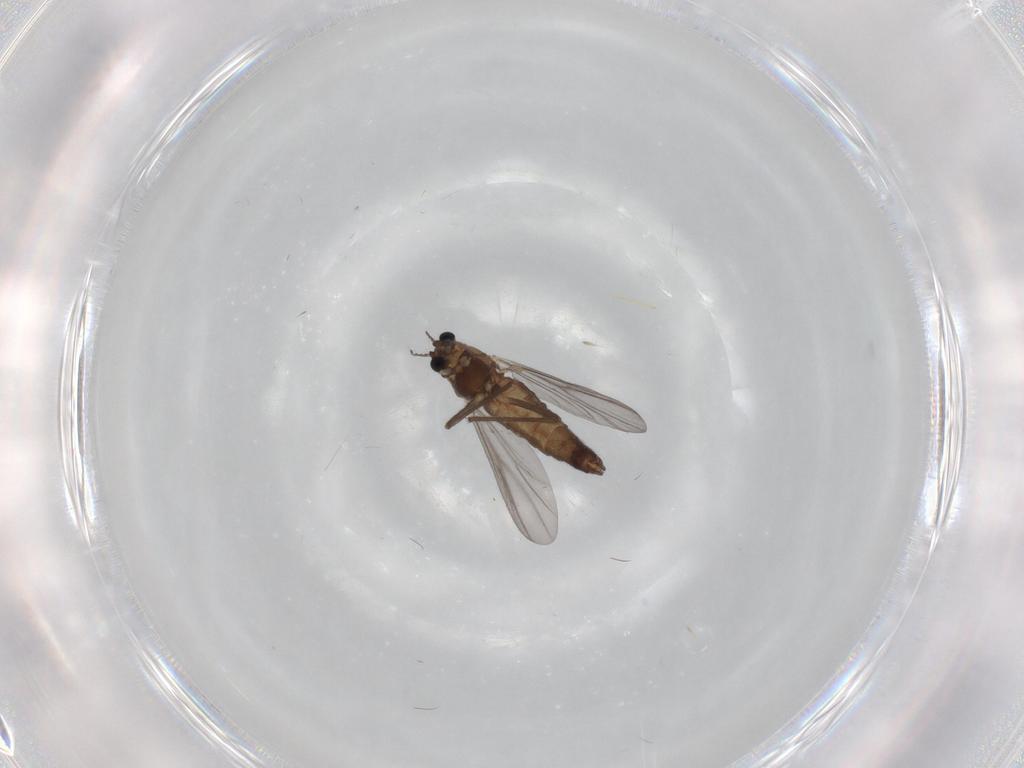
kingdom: Animalia
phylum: Arthropoda
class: Insecta
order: Diptera
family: Chironomidae
